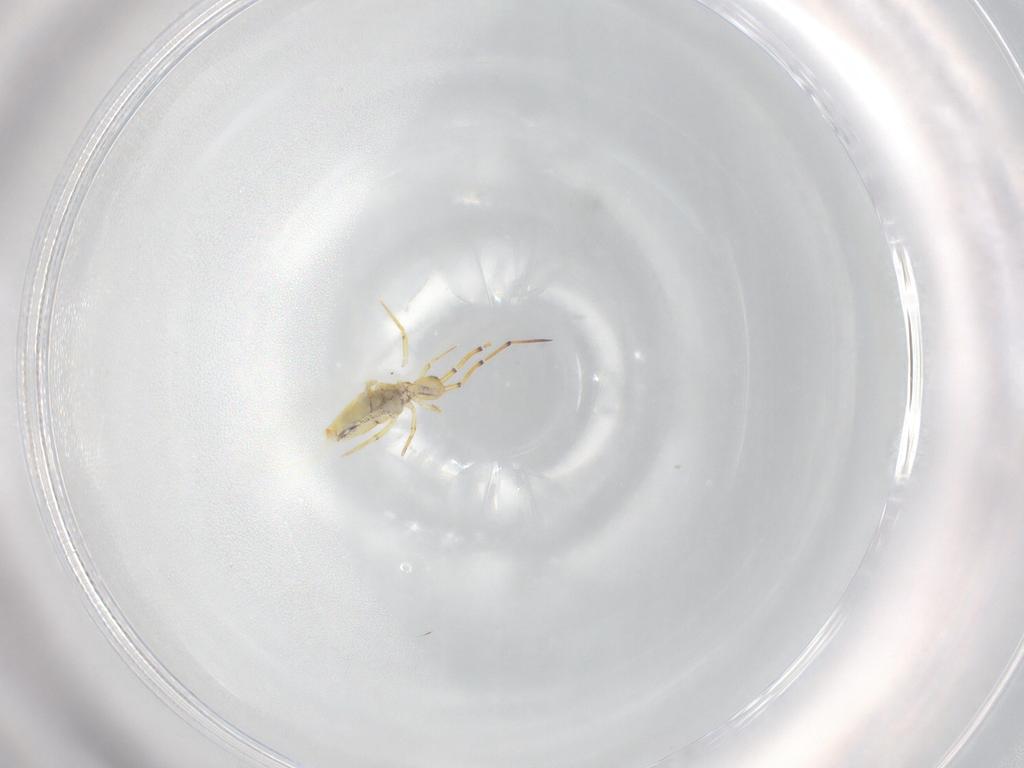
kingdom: Animalia
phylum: Arthropoda
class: Collembola
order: Entomobryomorpha
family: Entomobryidae
